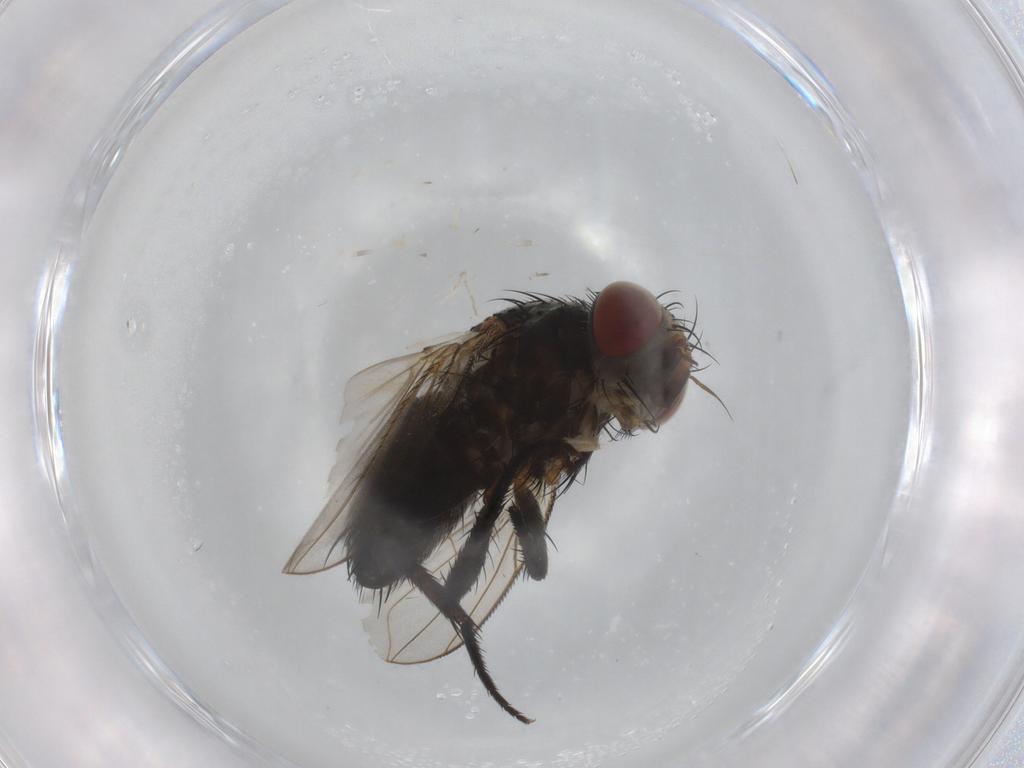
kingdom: Animalia
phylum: Arthropoda
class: Insecta
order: Diptera
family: Tachinidae
